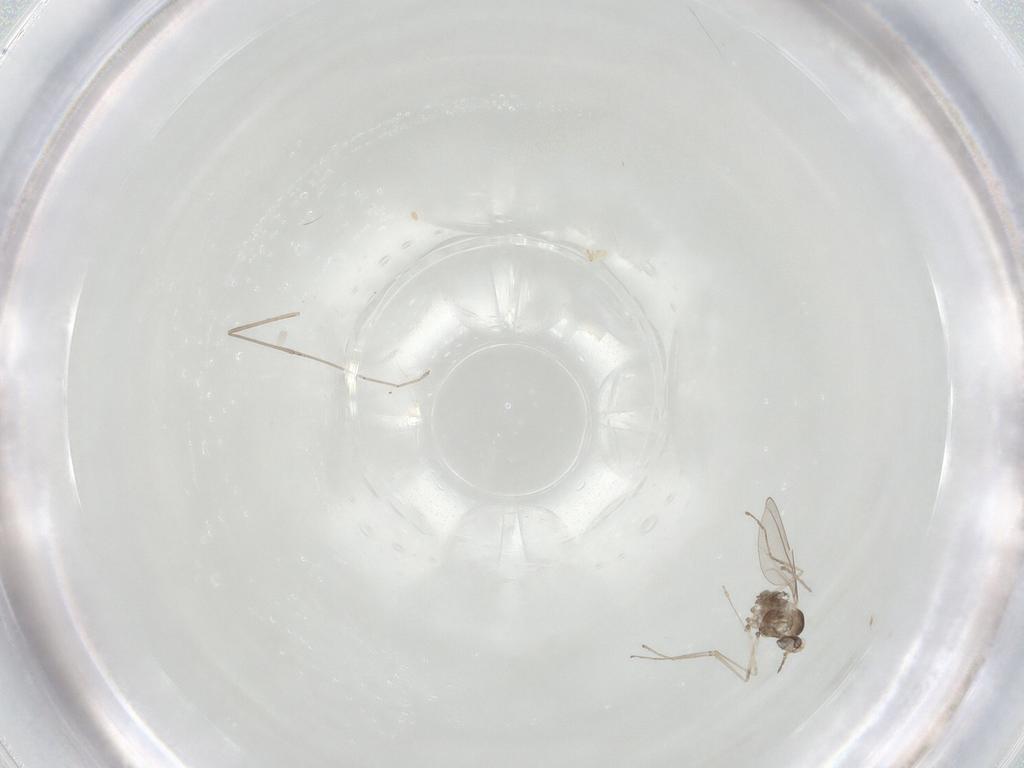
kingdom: Animalia
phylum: Arthropoda
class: Insecta
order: Diptera
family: Cecidomyiidae
